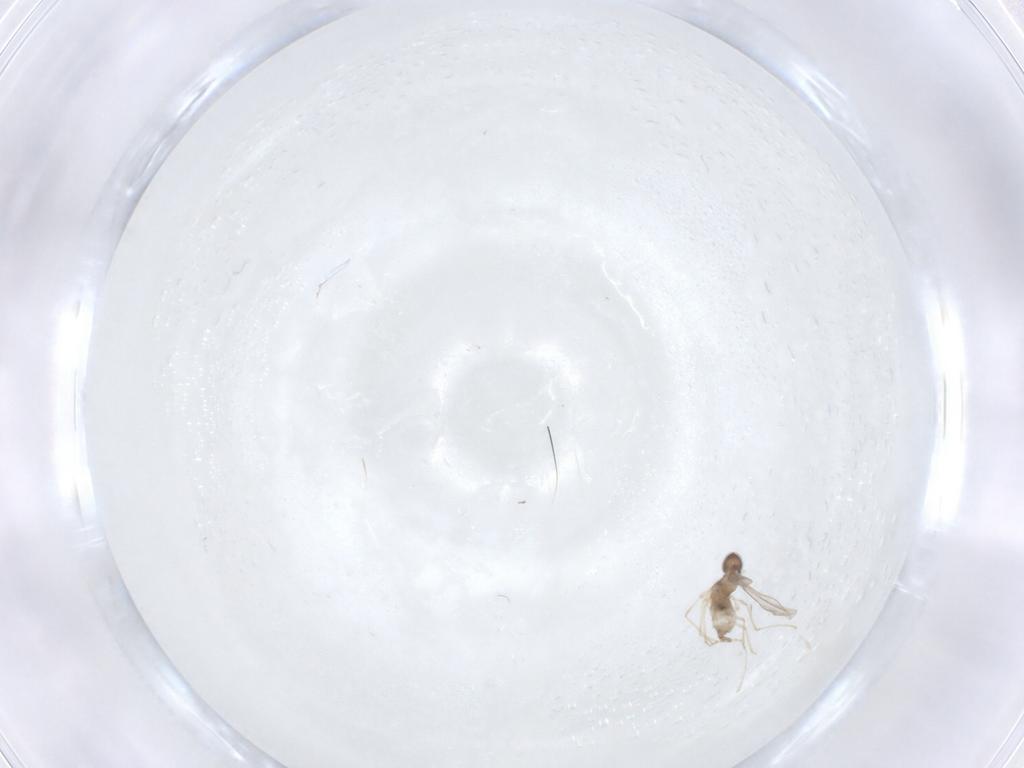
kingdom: Animalia
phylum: Arthropoda
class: Insecta
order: Diptera
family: Ceratopogonidae
